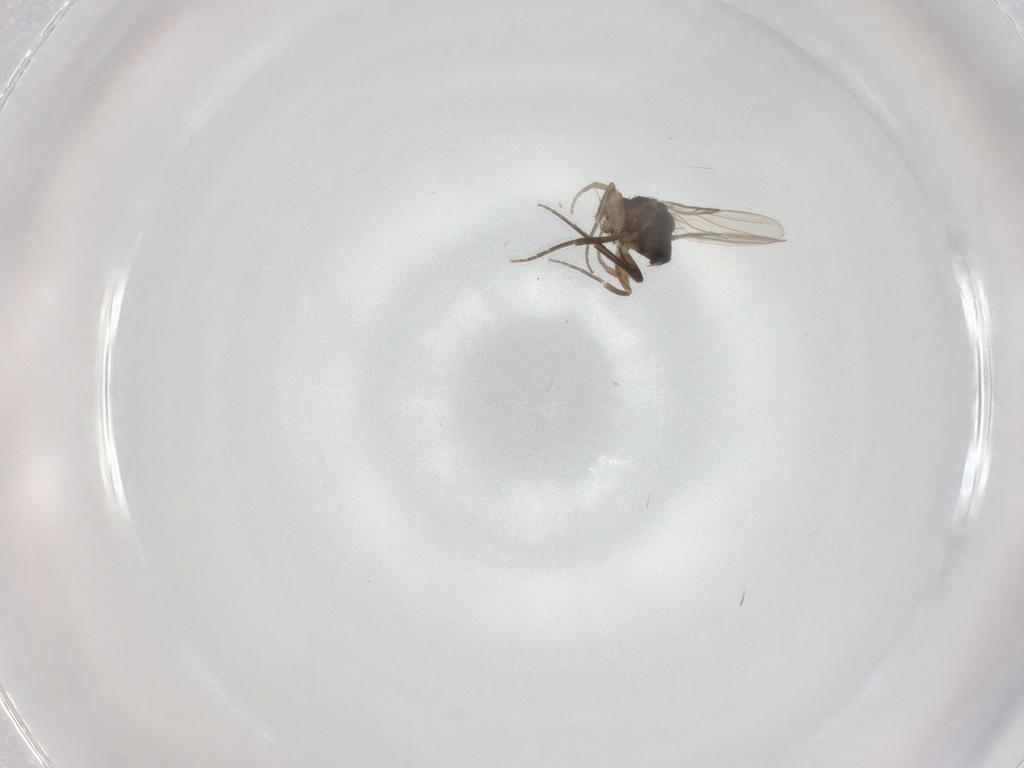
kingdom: Animalia
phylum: Arthropoda
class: Insecta
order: Diptera
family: Phoridae
